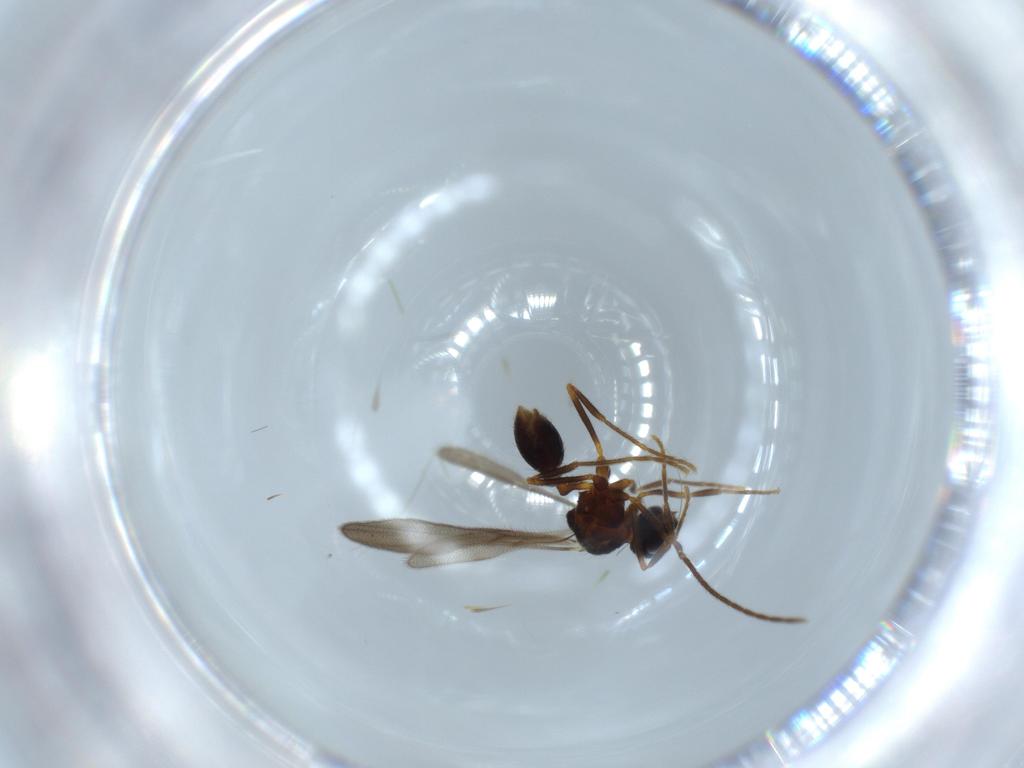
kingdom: Animalia
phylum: Arthropoda
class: Insecta
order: Hymenoptera
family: Formicidae
